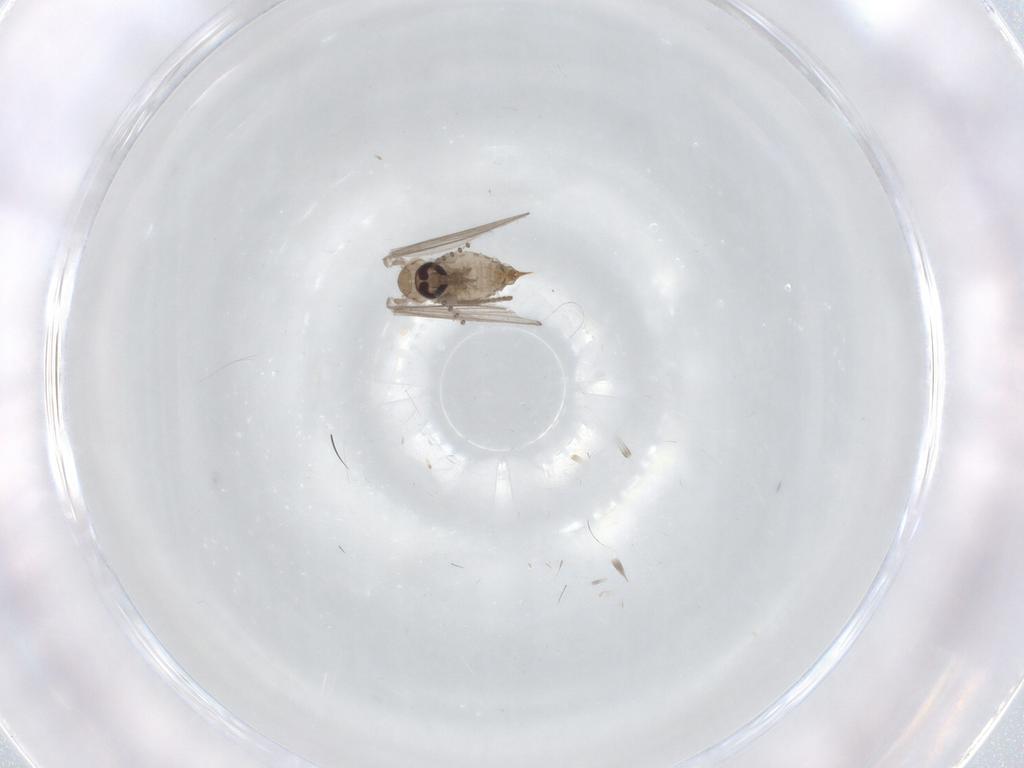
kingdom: Animalia
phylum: Arthropoda
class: Insecta
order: Diptera
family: Psychodidae
